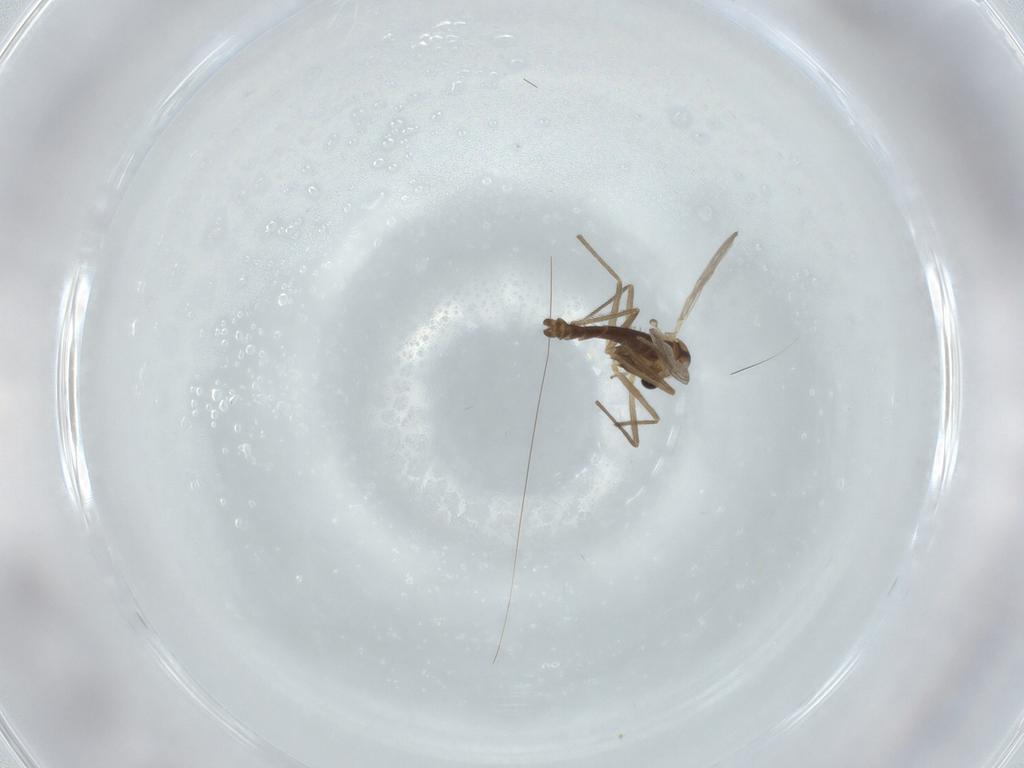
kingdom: Animalia
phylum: Arthropoda
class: Insecta
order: Diptera
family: Chironomidae
